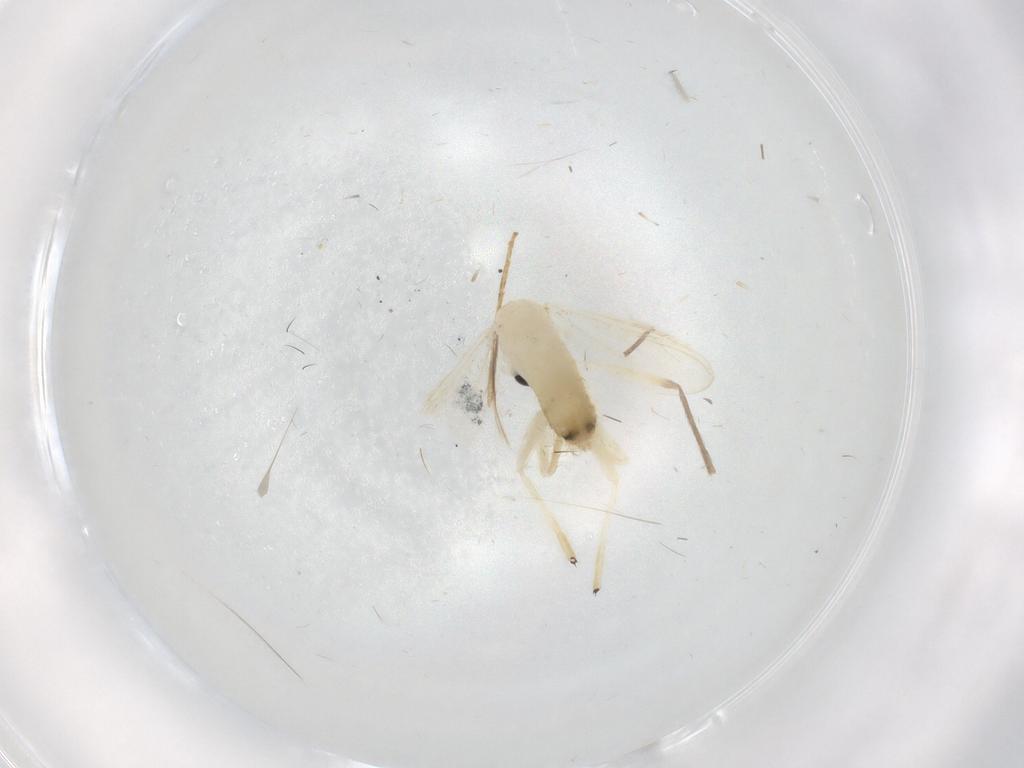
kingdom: Animalia
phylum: Arthropoda
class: Insecta
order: Diptera
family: Cecidomyiidae
